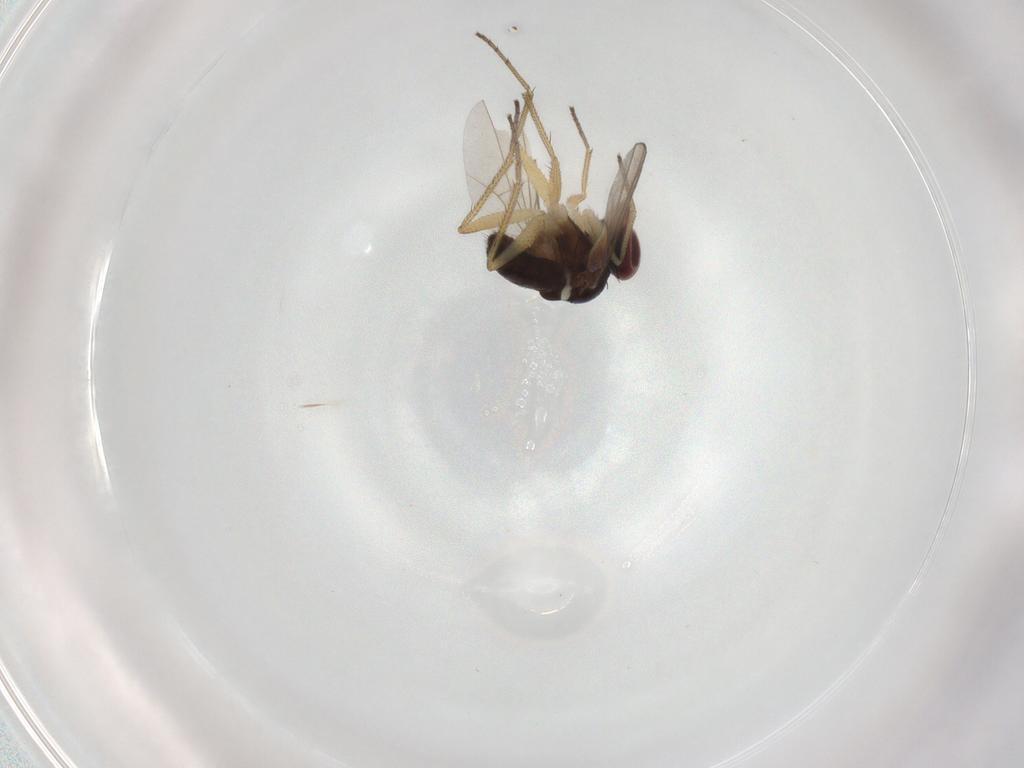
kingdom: Animalia
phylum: Arthropoda
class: Insecta
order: Diptera
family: Dolichopodidae
